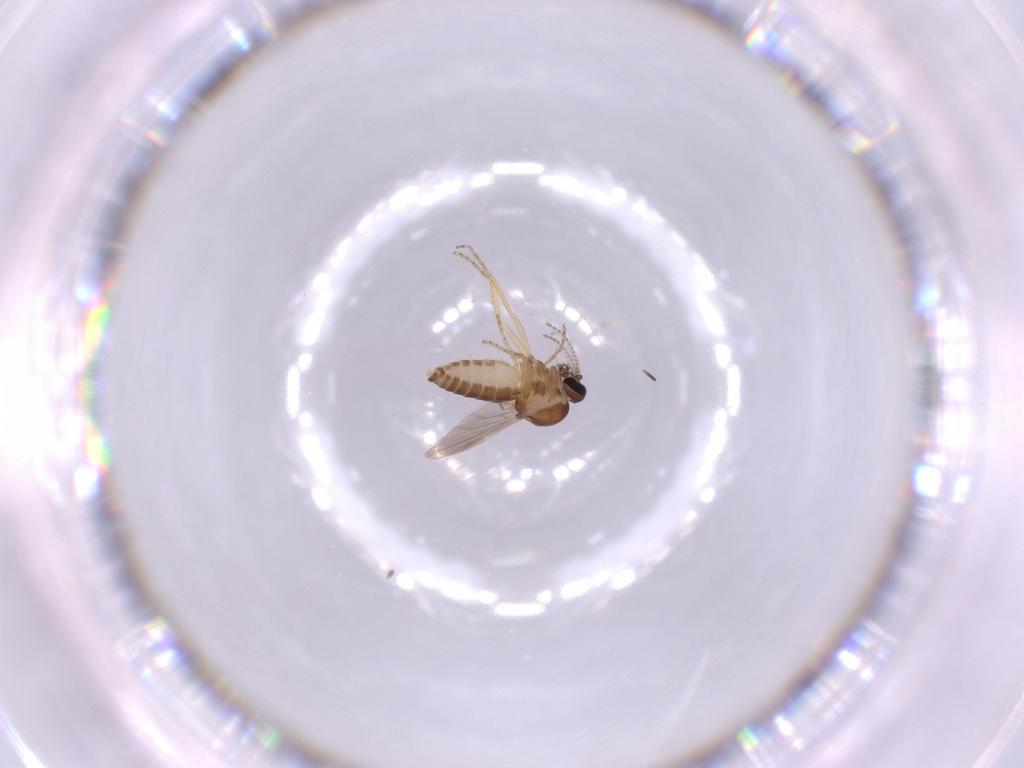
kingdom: Animalia
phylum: Arthropoda
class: Insecta
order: Diptera
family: Ceratopogonidae
